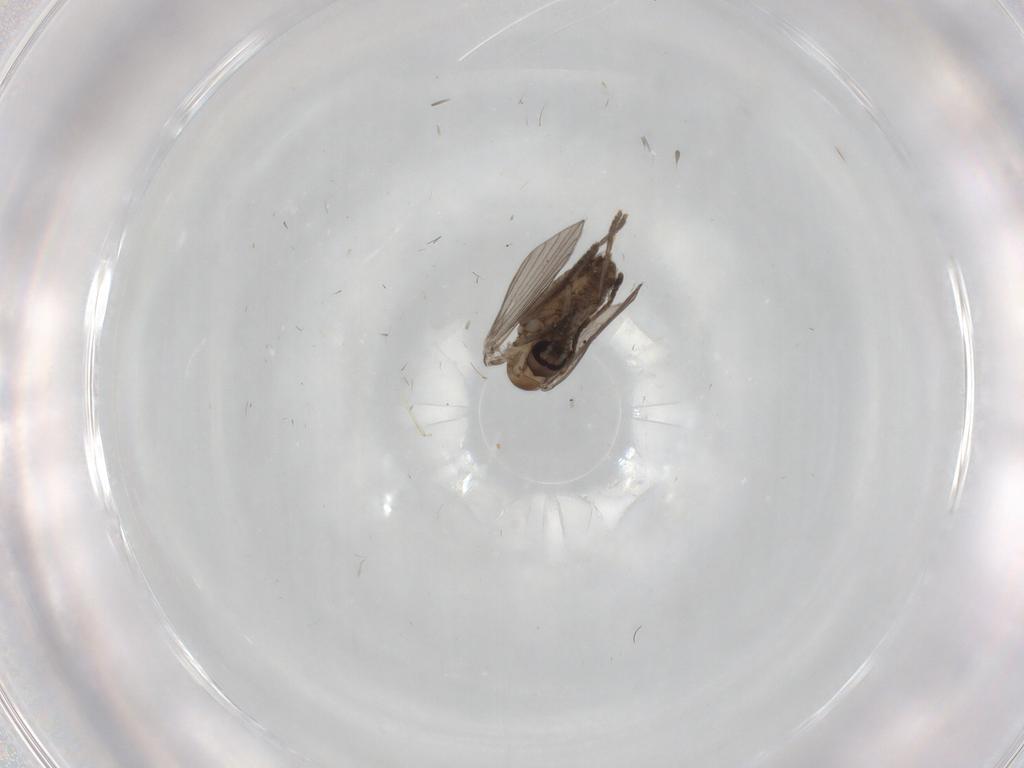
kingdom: Animalia
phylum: Arthropoda
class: Insecta
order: Diptera
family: Psychodidae
